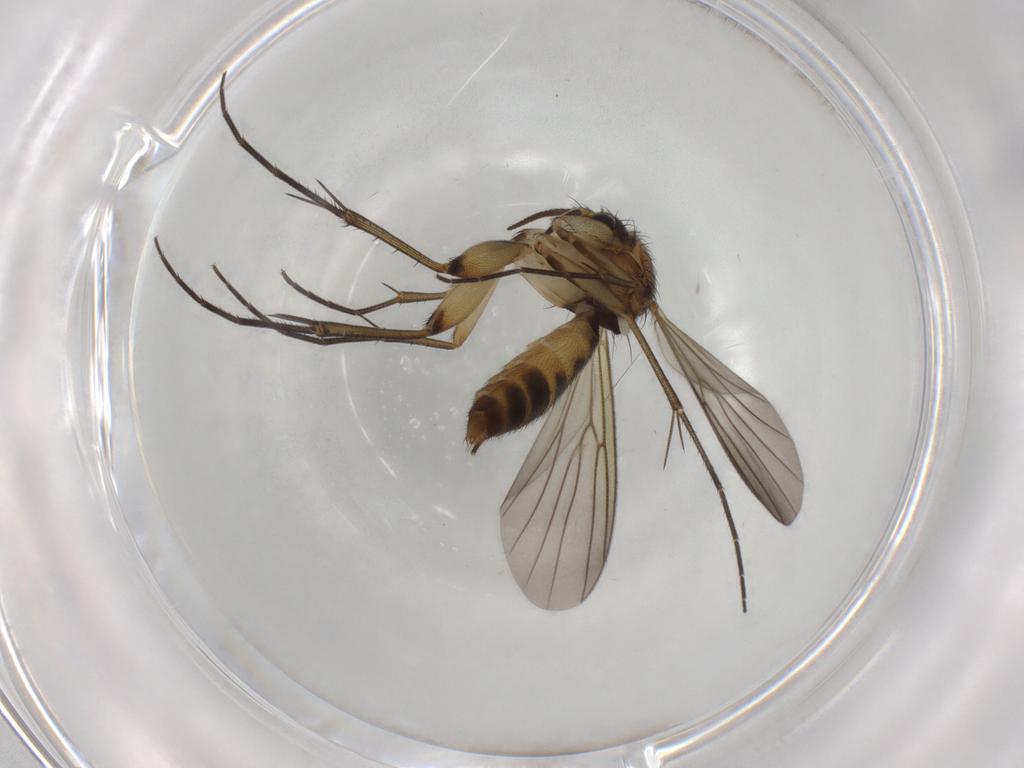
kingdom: Animalia
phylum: Arthropoda
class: Insecta
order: Diptera
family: Mycetophilidae
